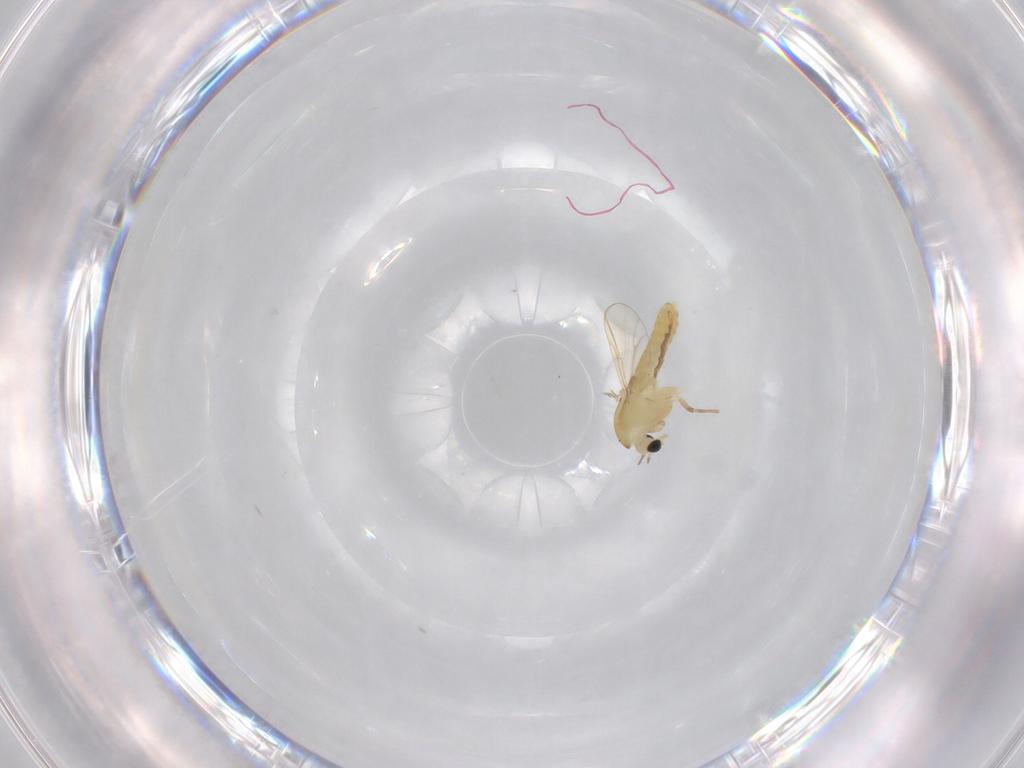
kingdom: Animalia
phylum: Arthropoda
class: Insecta
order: Diptera
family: Chironomidae
